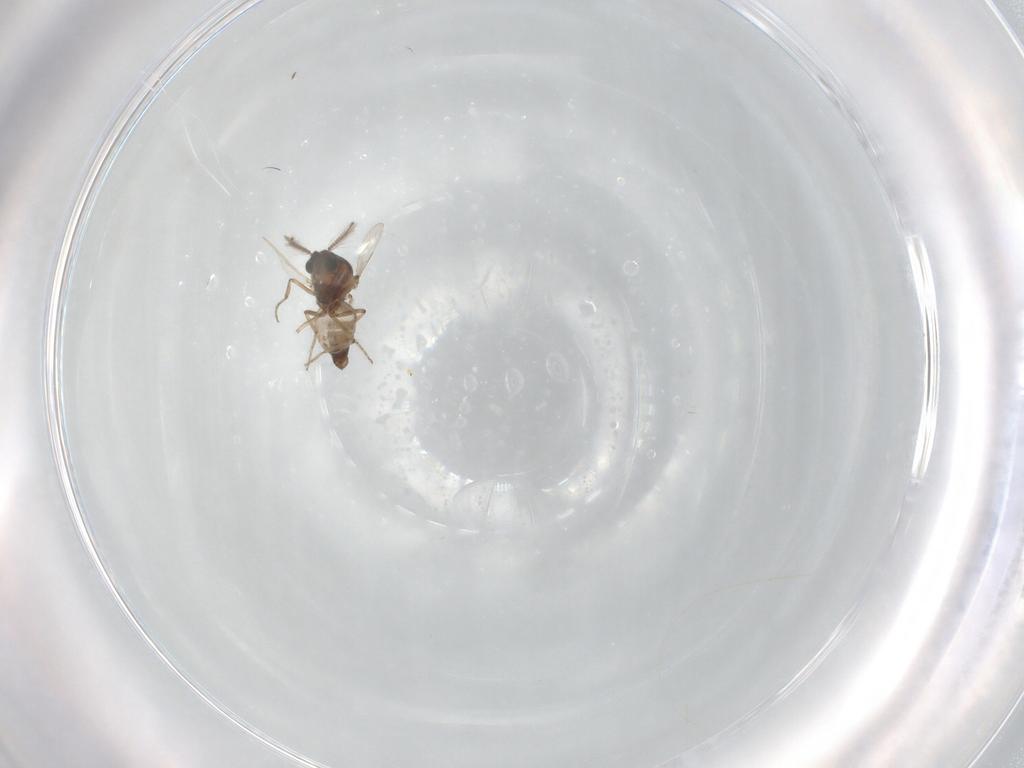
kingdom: Animalia
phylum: Arthropoda
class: Insecta
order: Diptera
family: Ceratopogonidae
